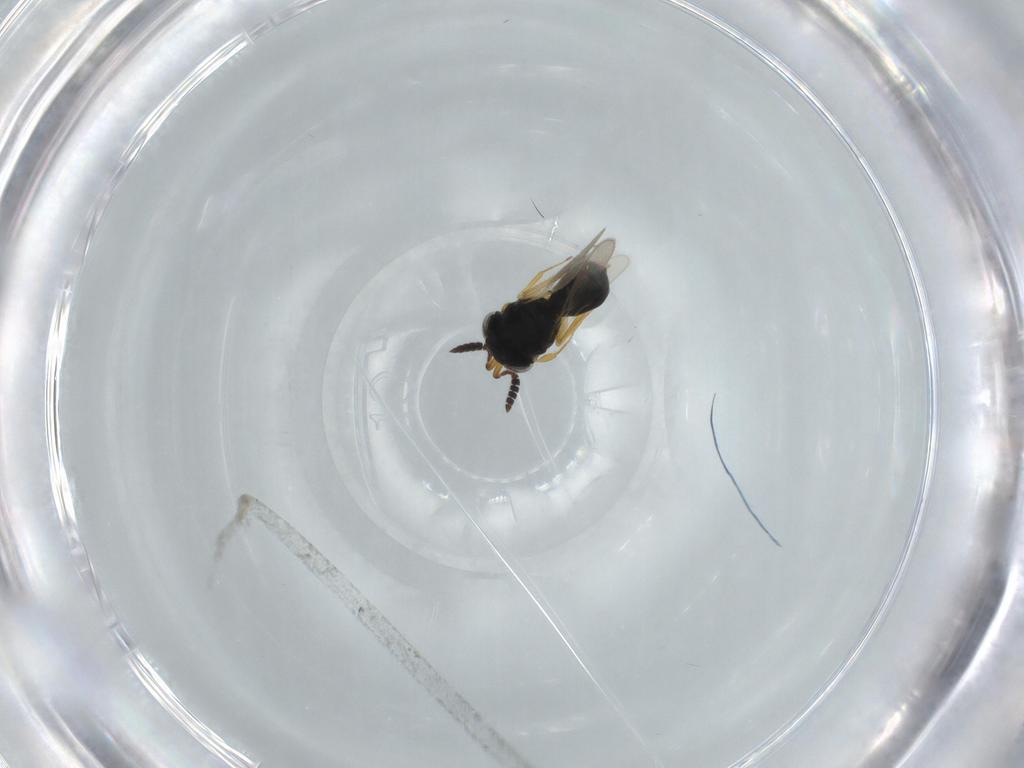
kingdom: Animalia
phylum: Arthropoda
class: Insecta
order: Hymenoptera
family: Scelionidae
